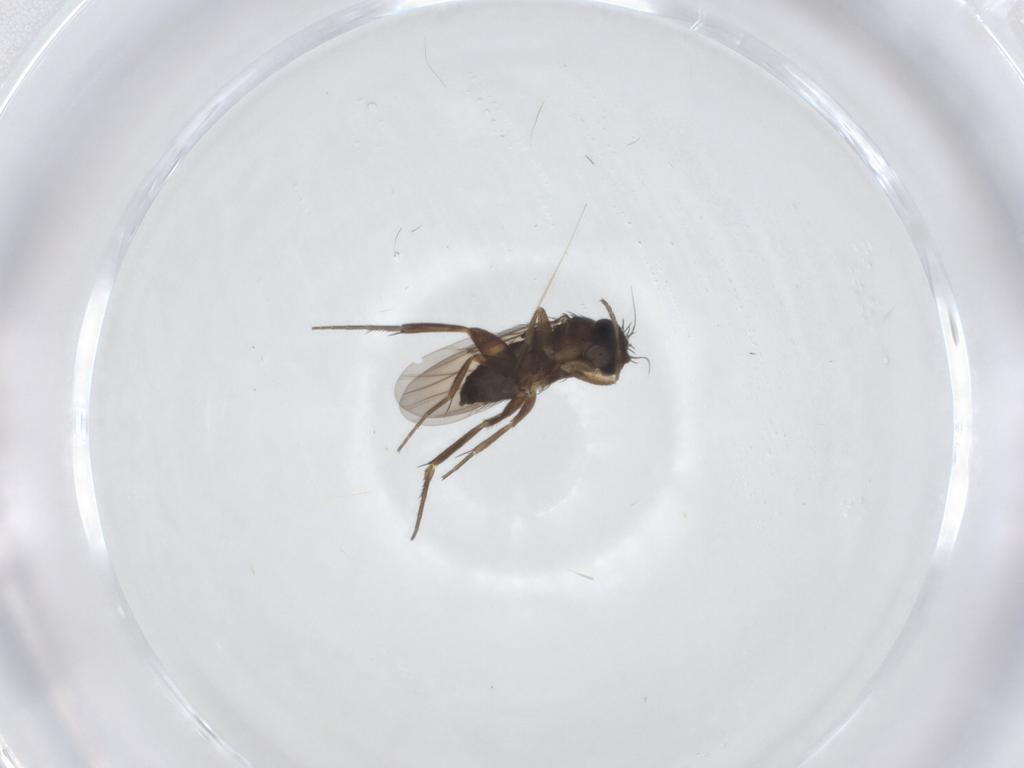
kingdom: Animalia
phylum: Arthropoda
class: Insecta
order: Diptera
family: Phoridae
